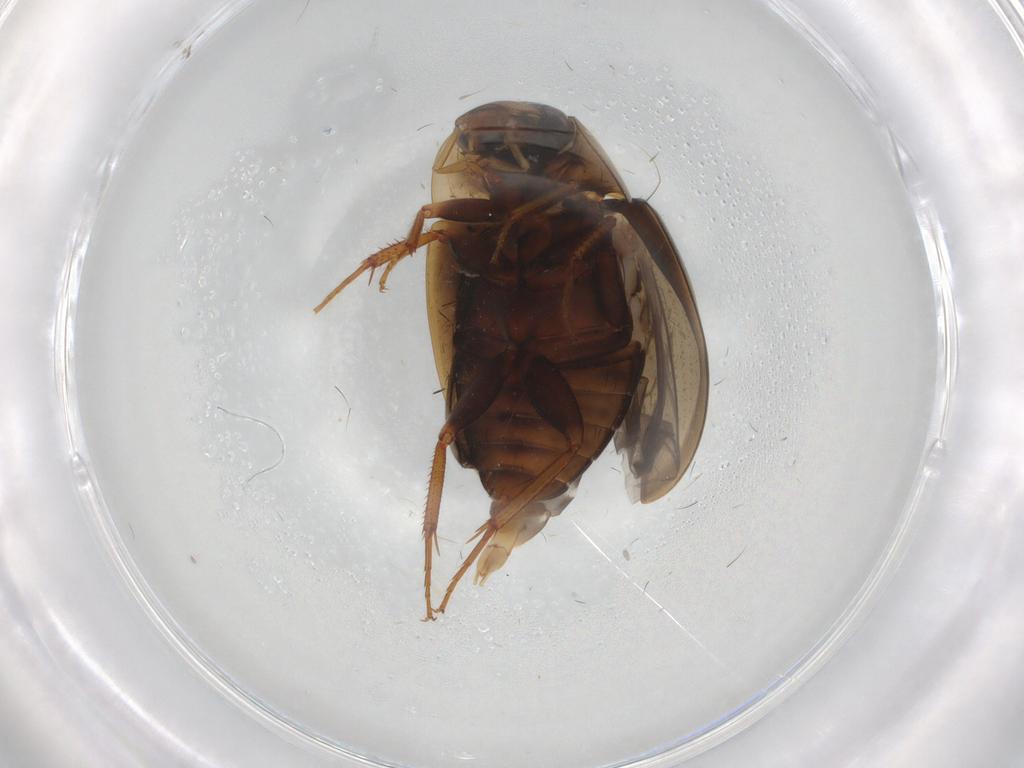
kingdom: Animalia
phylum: Arthropoda
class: Insecta
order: Coleoptera
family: Hydrophilidae
